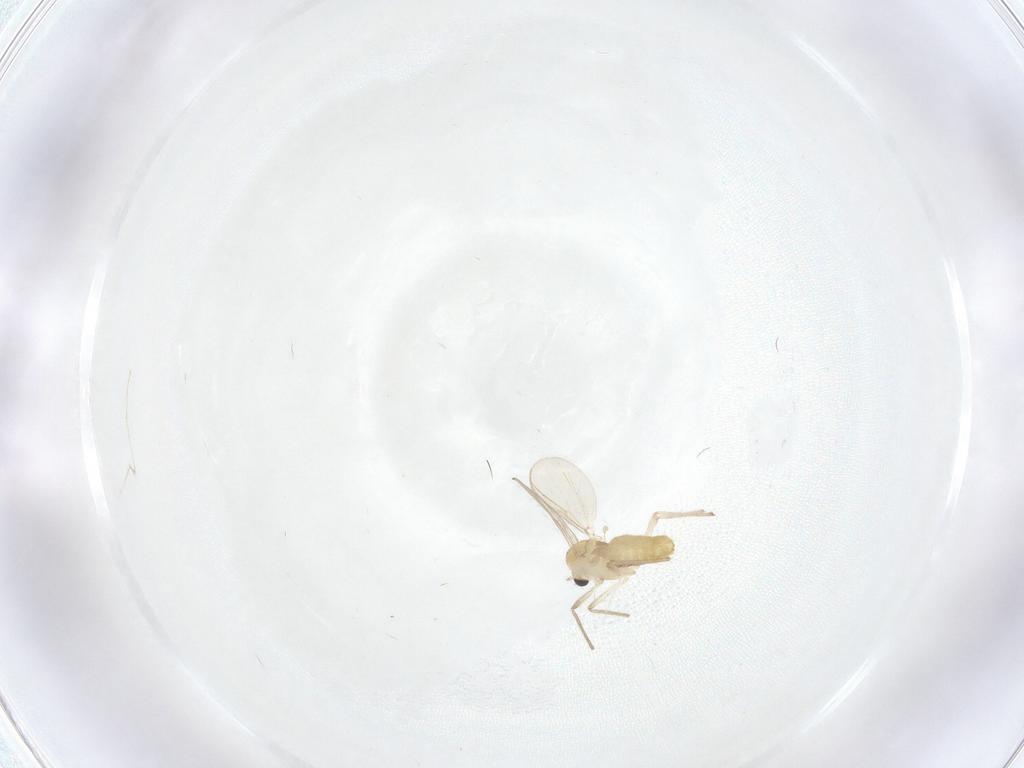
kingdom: Animalia
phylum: Arthropoda
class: Insecta
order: Diptera
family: Chironomidae
